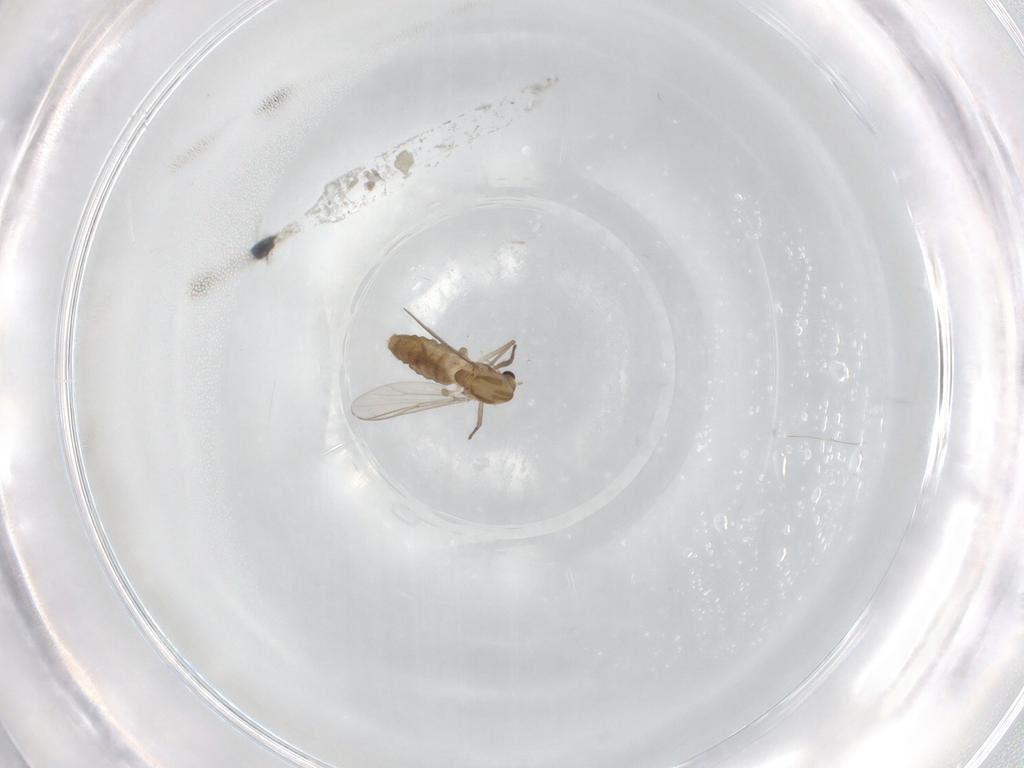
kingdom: Animalia
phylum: Arthropoda
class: Insecta
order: Diptera
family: Chironomidae
